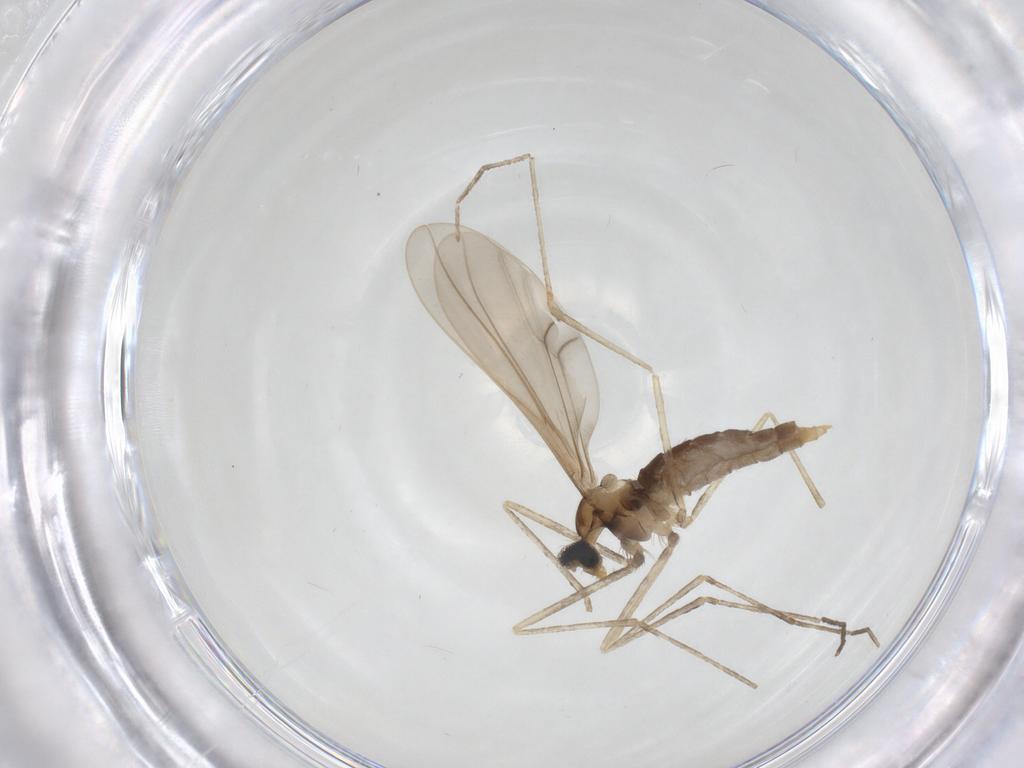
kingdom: Animalia
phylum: Arthropoda
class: Insecta
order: Diptera
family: Cecidomyiidae
